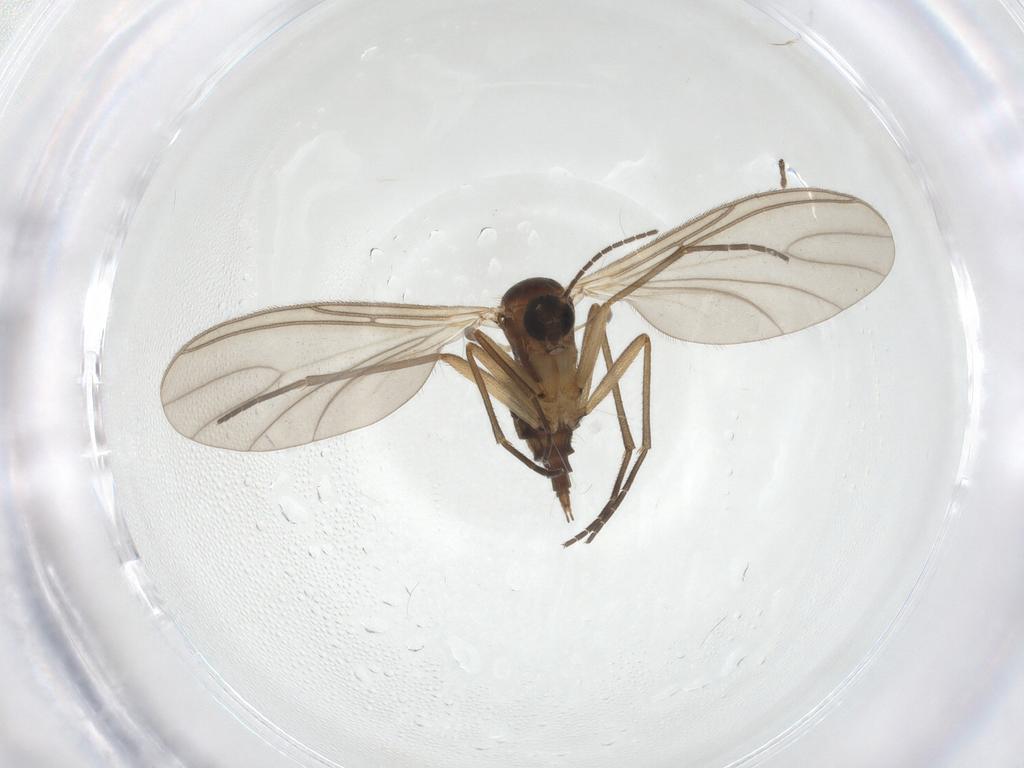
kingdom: Animalia
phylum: Arthropoda
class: Insecta
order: Diptera
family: Sciaridae
